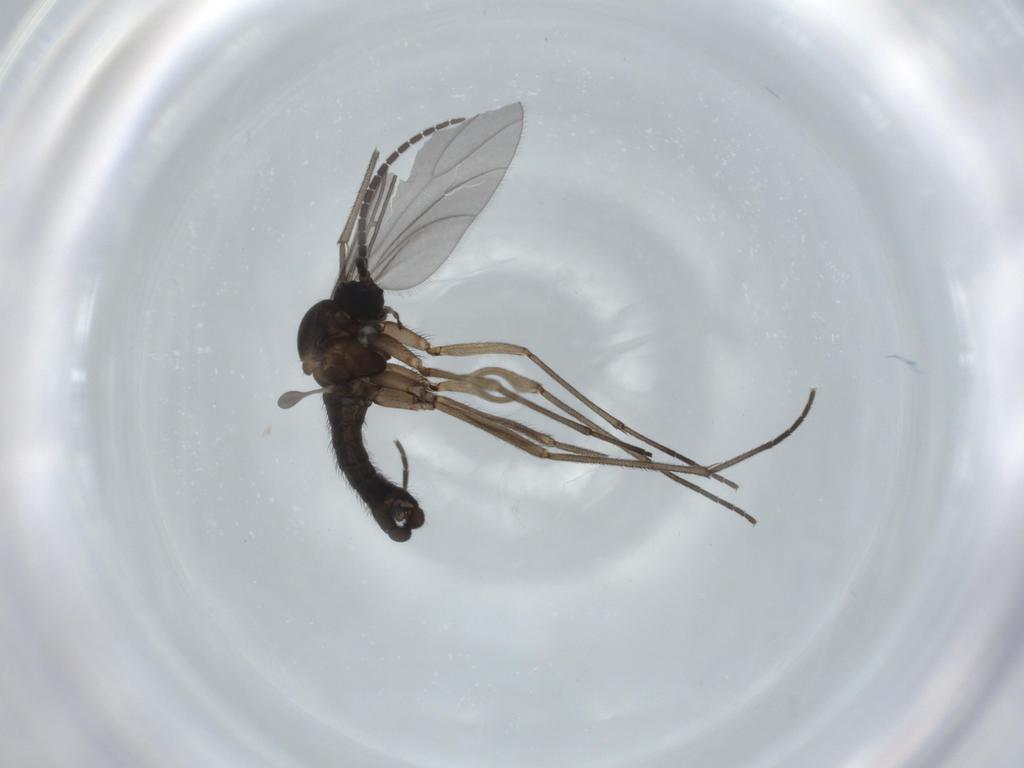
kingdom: Animalia
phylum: Arthropoda
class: Insecta
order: Diptera
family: Sciaridae
